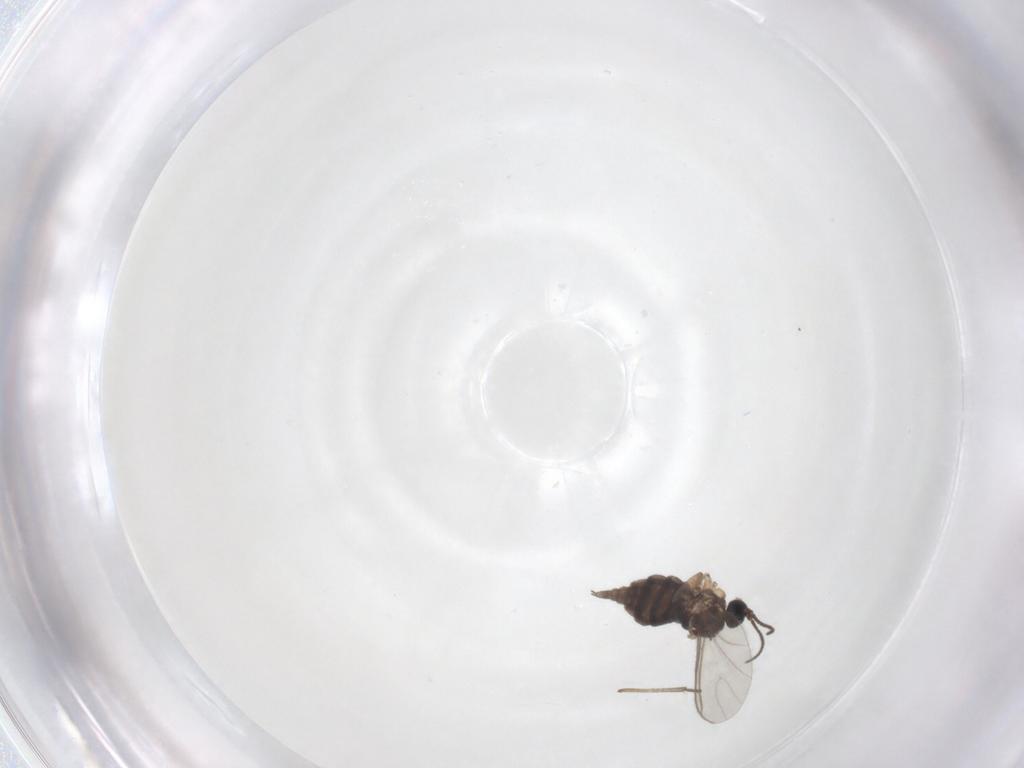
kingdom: Animalia
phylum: Arthropoda
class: Insecta
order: Diptera
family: Sciaridae
